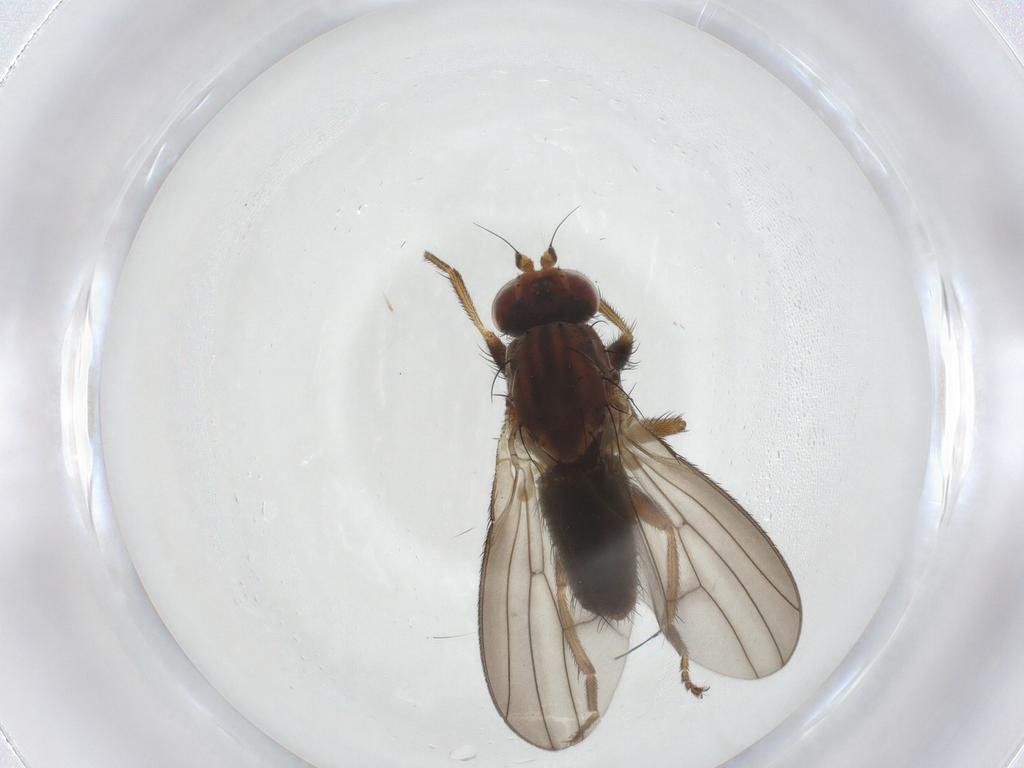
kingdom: Animalia
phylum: Arthropoda
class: Insecta
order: Diptera
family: Heleomyzidae
